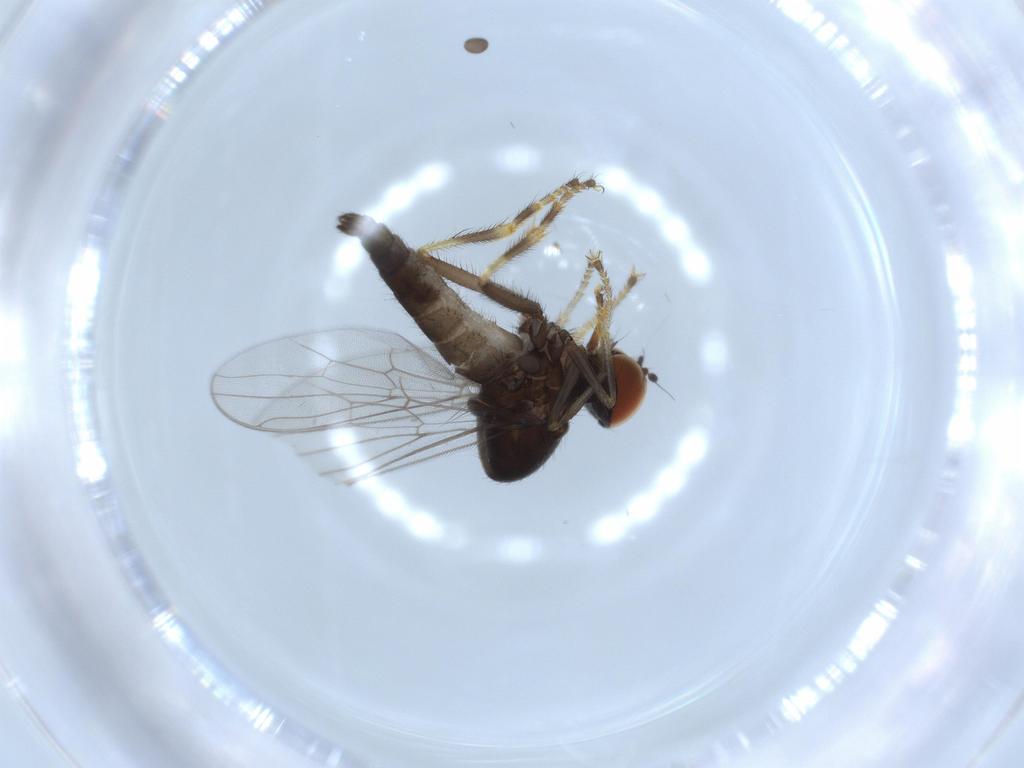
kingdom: Animalia
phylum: Arthropoda
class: Insecta
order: Diptera
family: Hybotidae
